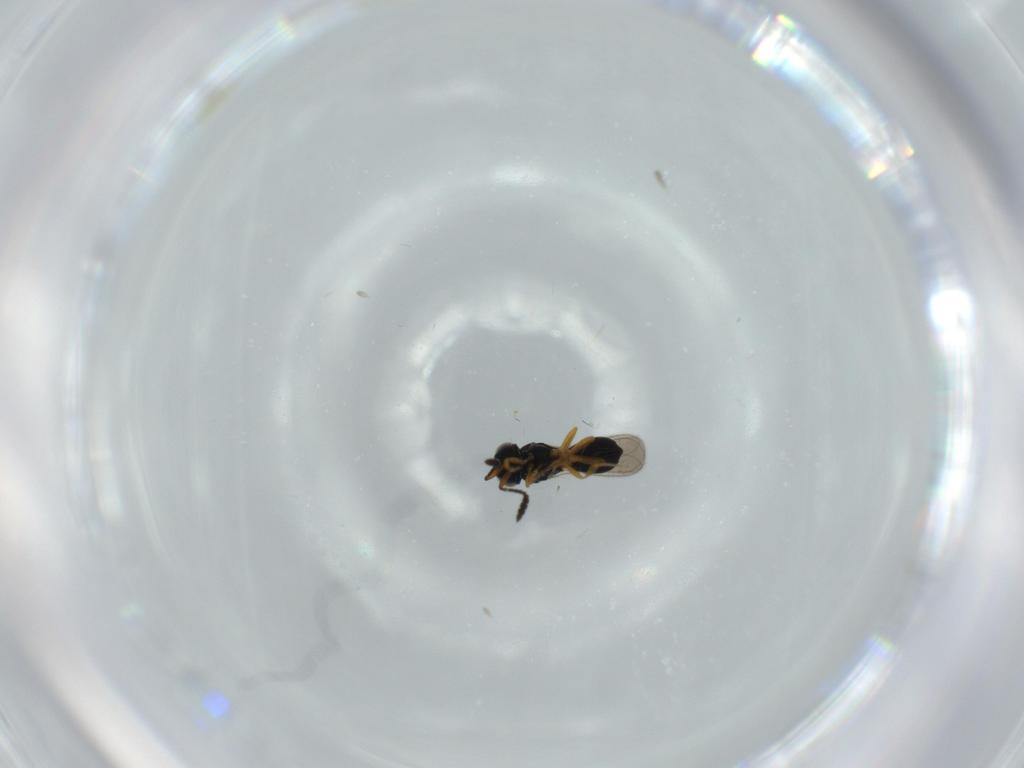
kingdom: Animalia
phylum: Arthropoda
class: Insecta
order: Hymenoptera
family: Scelionidae
